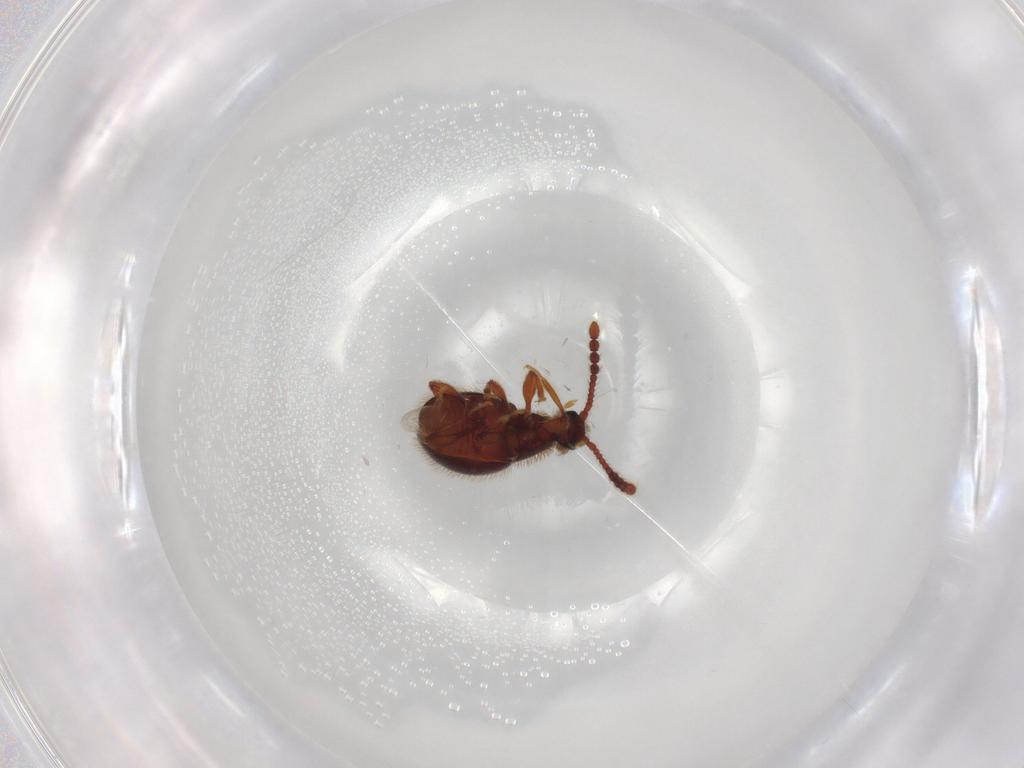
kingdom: Animalia
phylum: Arthropoda
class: Insecta
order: Coleoptera
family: Staphylinidae
